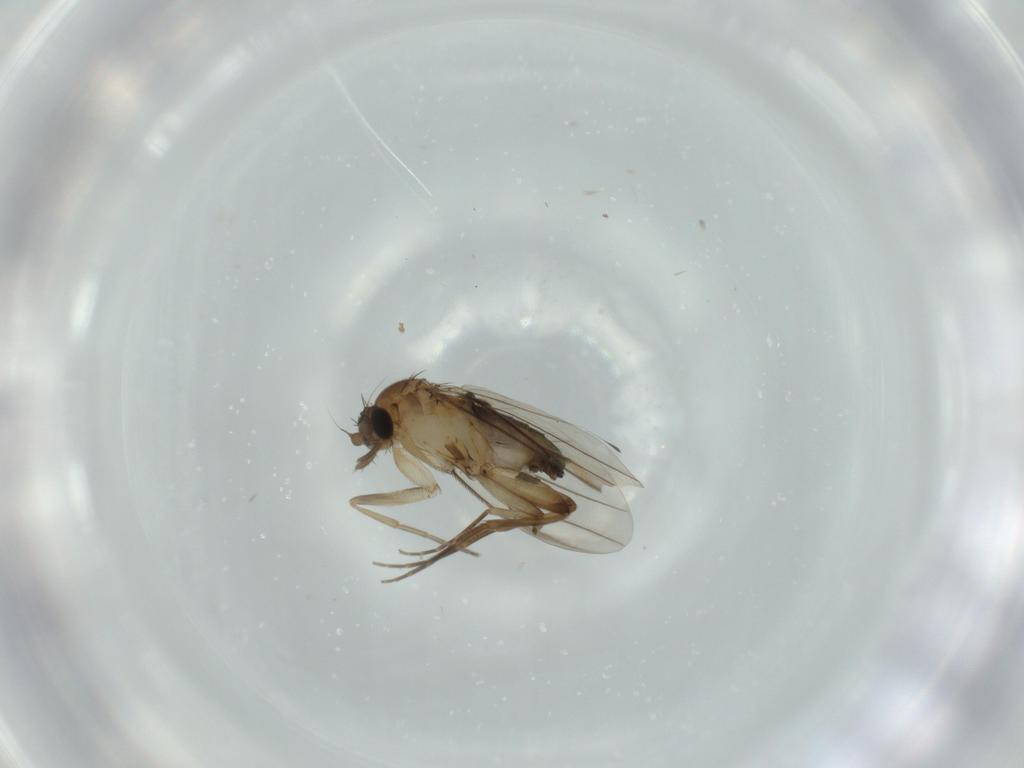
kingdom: Animalia
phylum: Arthropoda
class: Insecta
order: Diptera
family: Phoridae
